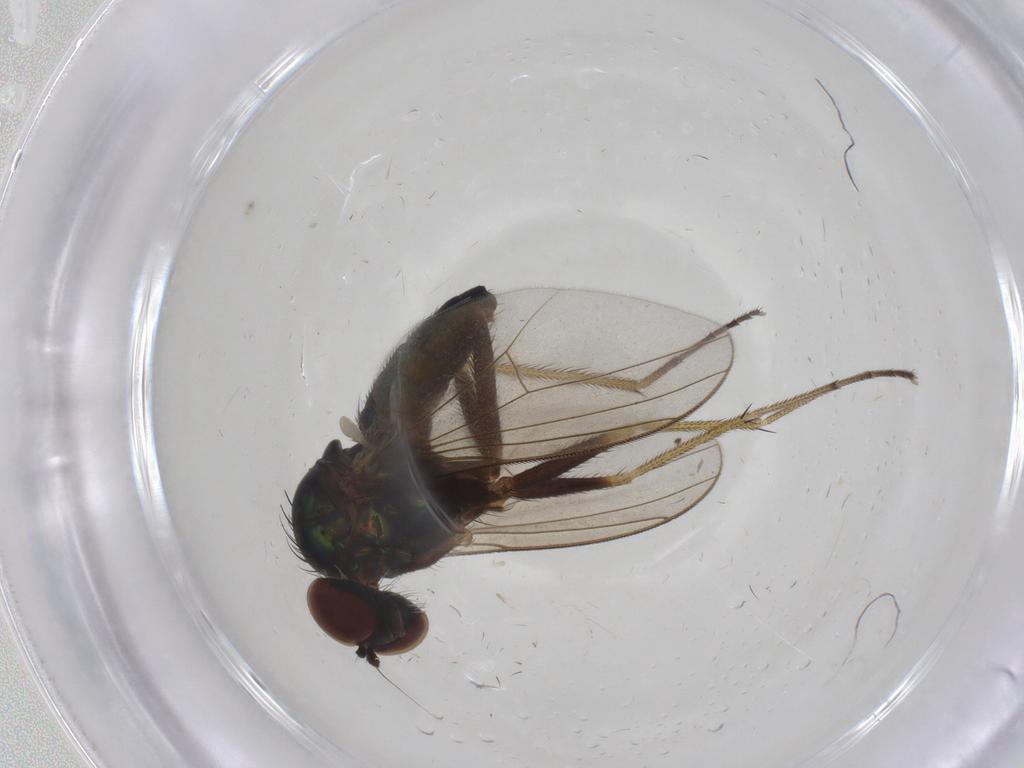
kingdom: Animalia
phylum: Arthropoda
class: Insecta
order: Diptera
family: Dolichopodidae
